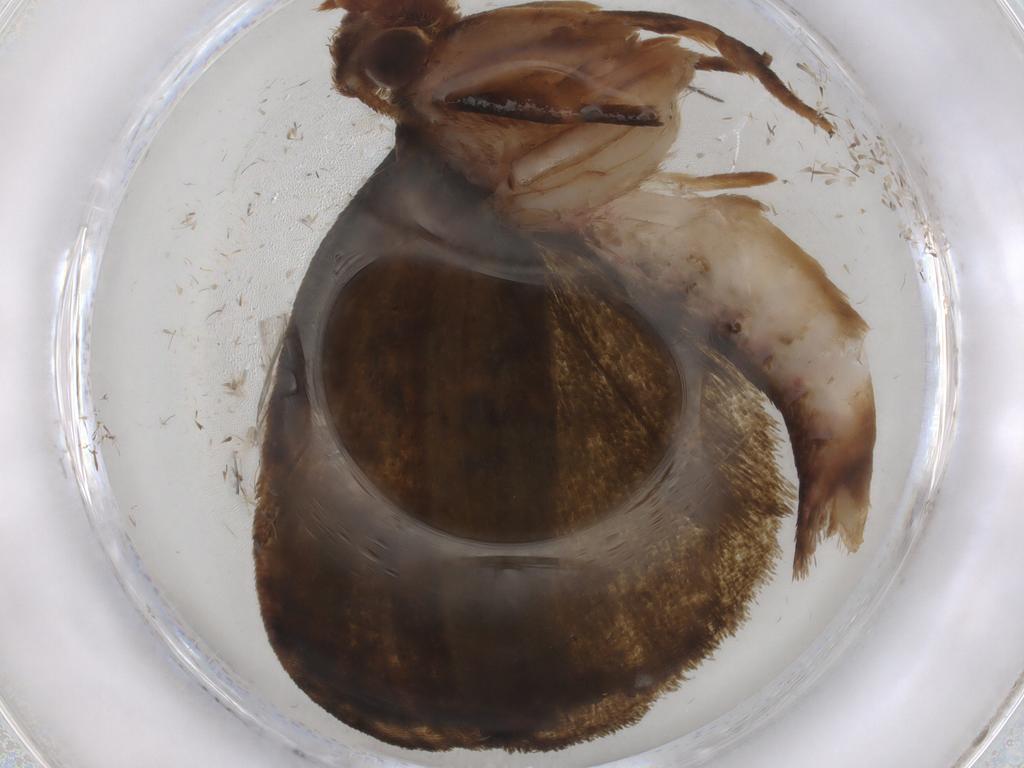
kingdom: Animalia
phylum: Arthropoda
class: Insecta
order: Lepidoptera
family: Geometridae
